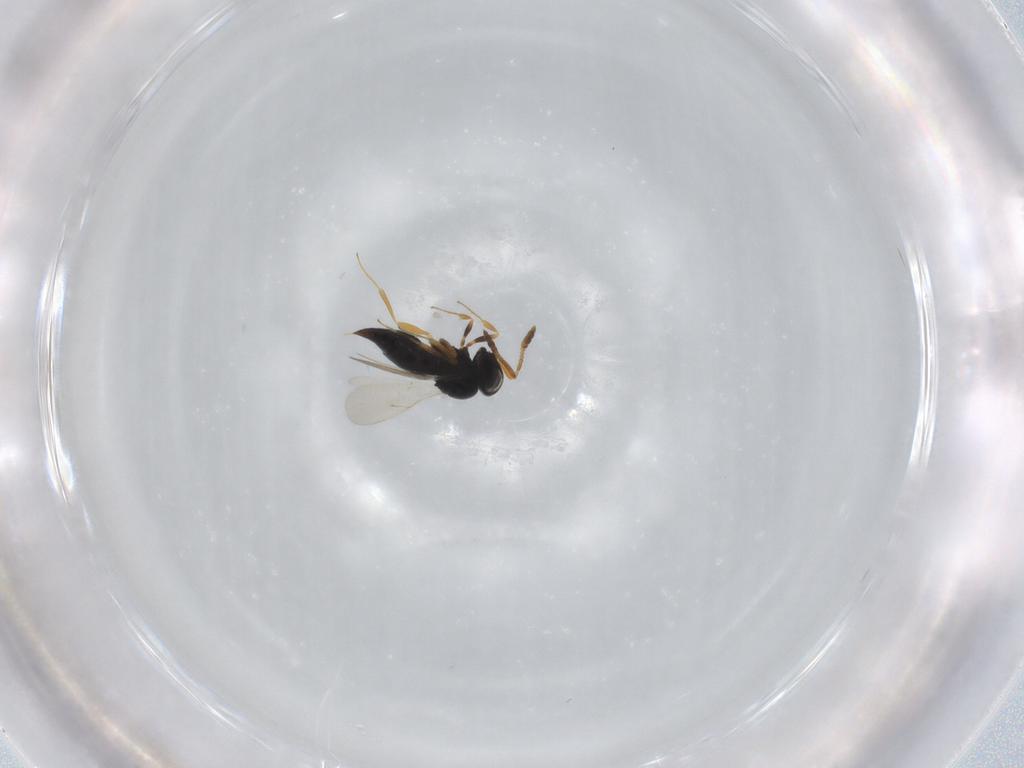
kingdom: Animalia
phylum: Arthropoda
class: Insecta
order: Hymenoptera
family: Scelionidae
